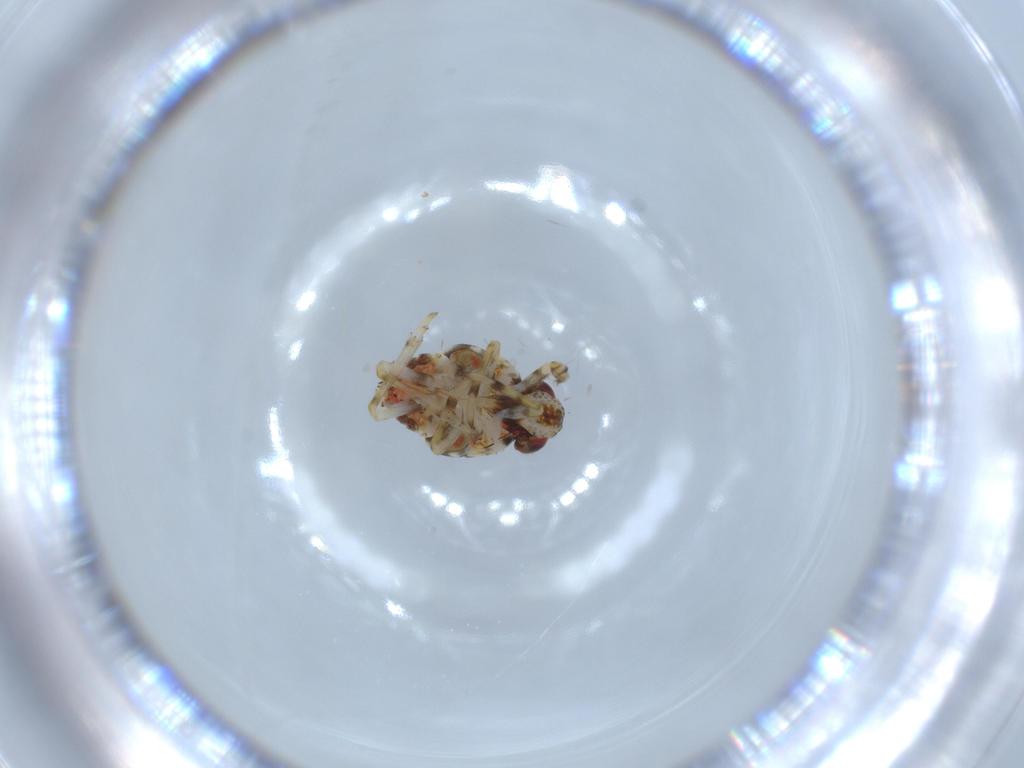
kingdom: Animalia
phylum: Arthropoda
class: Insecta
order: Hemiptera
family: Issidae
